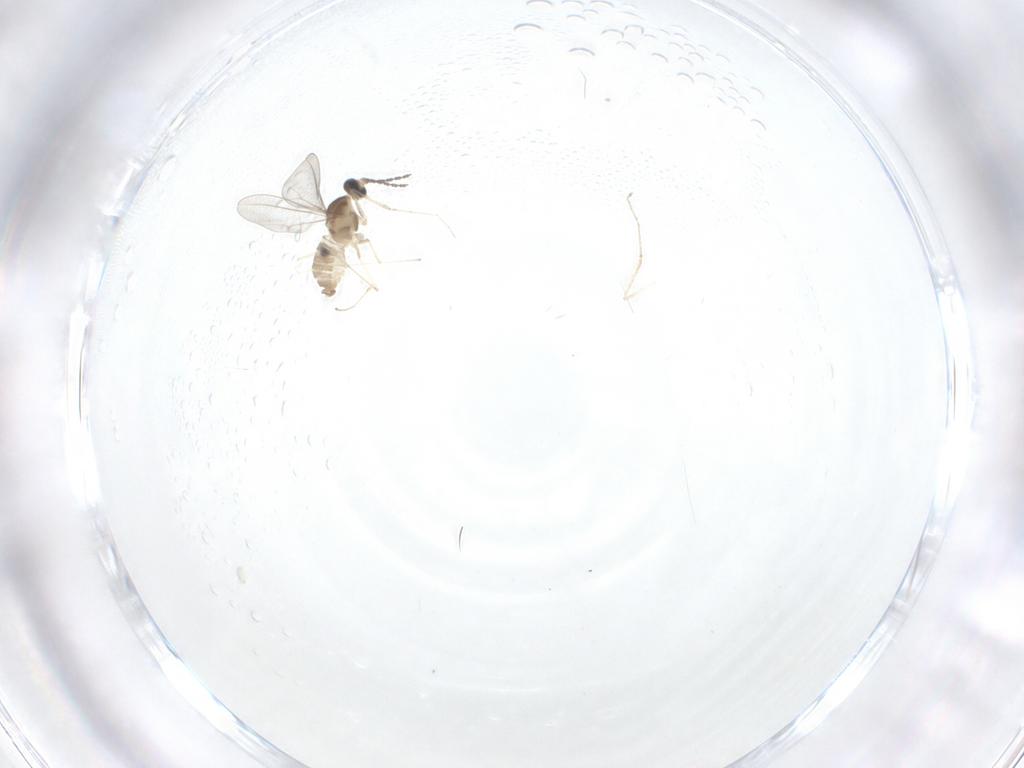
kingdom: Animalia
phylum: Arthropoda
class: Insecta
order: Diptera
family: Cecidomyiidae
